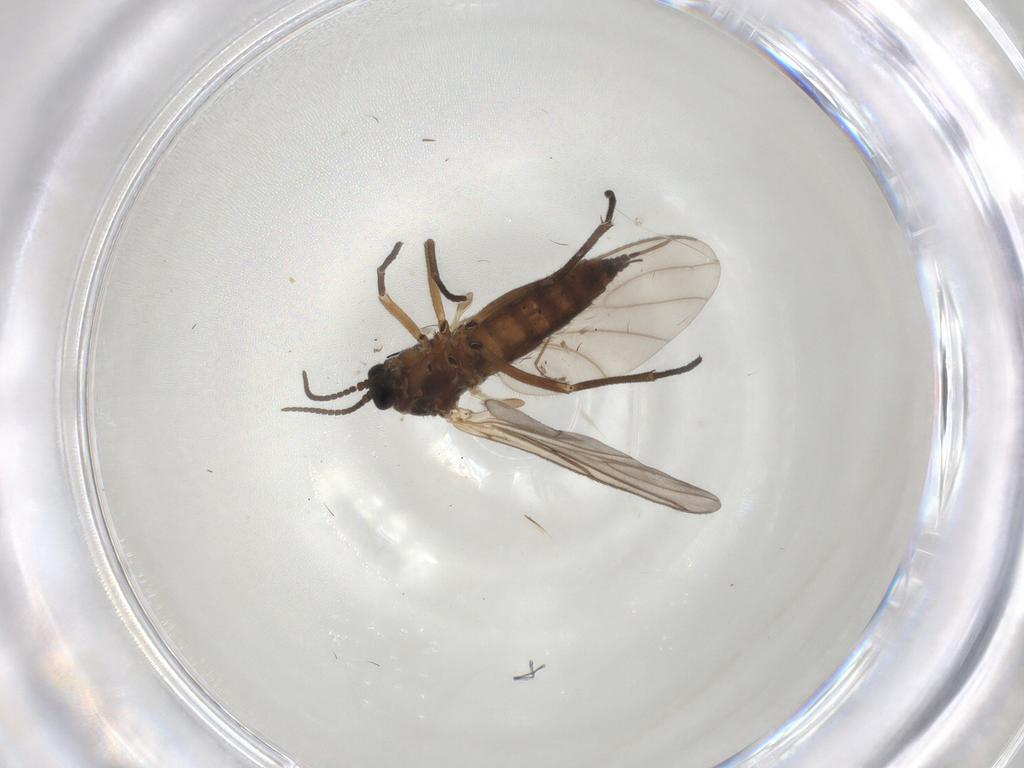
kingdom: Animalia
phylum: Arthropoda
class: Insecta
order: Diptera
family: Sciaridae
